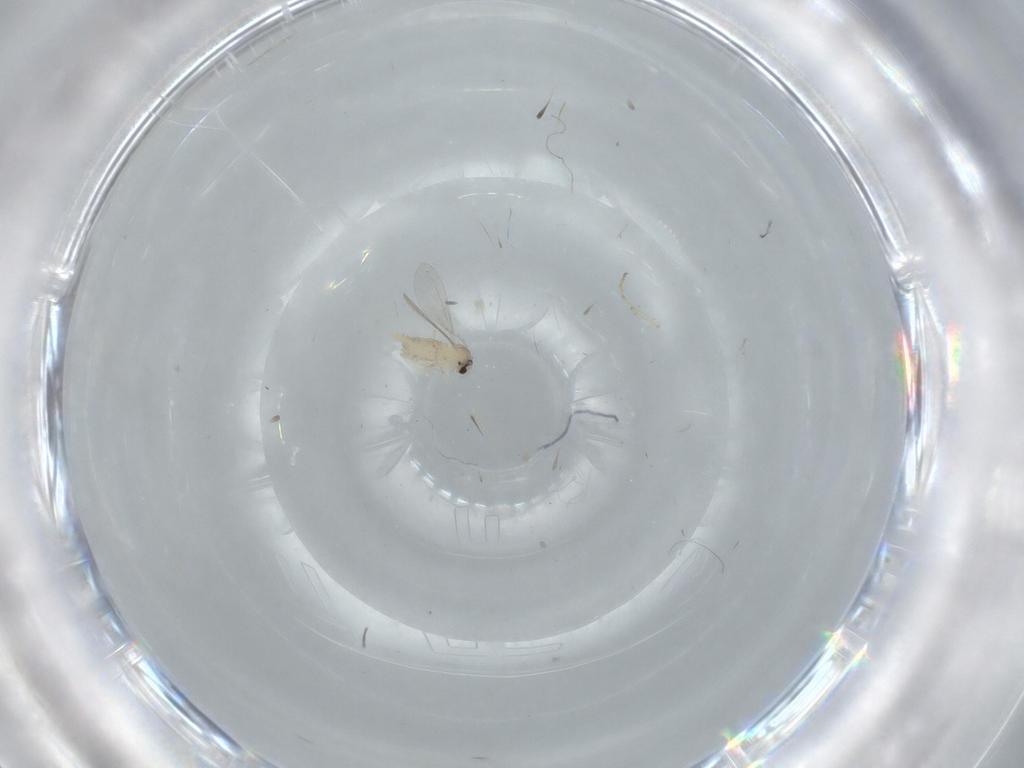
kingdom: Animalia
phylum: Arthropoda
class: Insecta
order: Diptera
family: Cecidomyiidae
